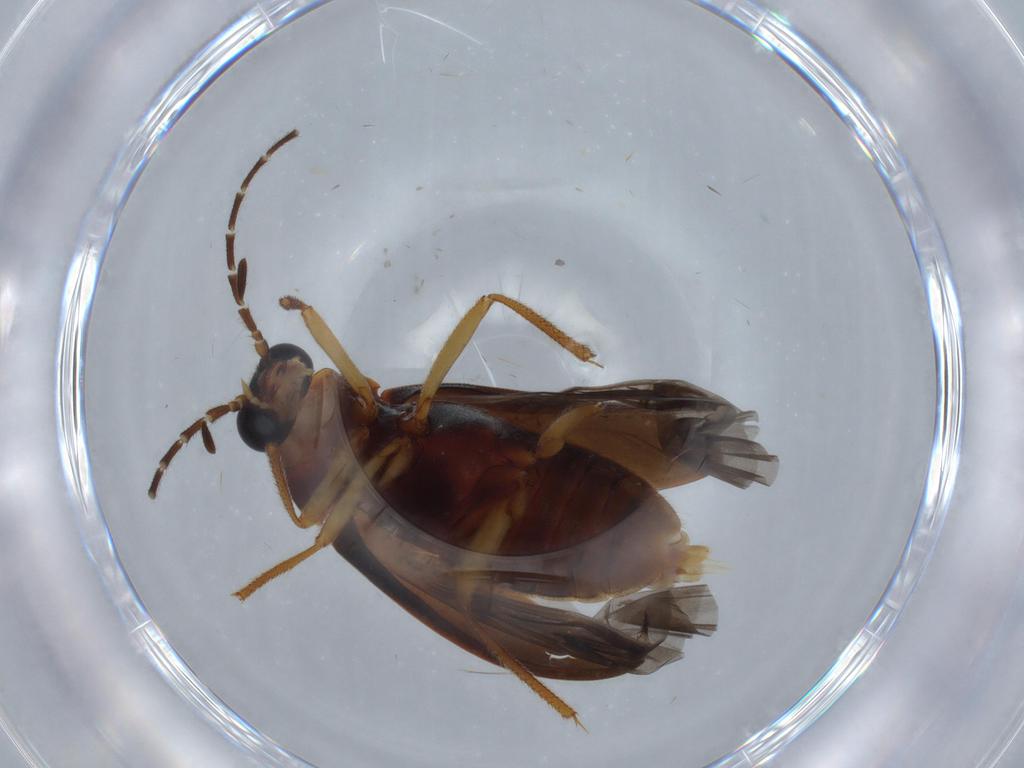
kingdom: Animalia
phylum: Arthropoda
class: Insecta
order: Coleoptera
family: Ptilodactylidae
